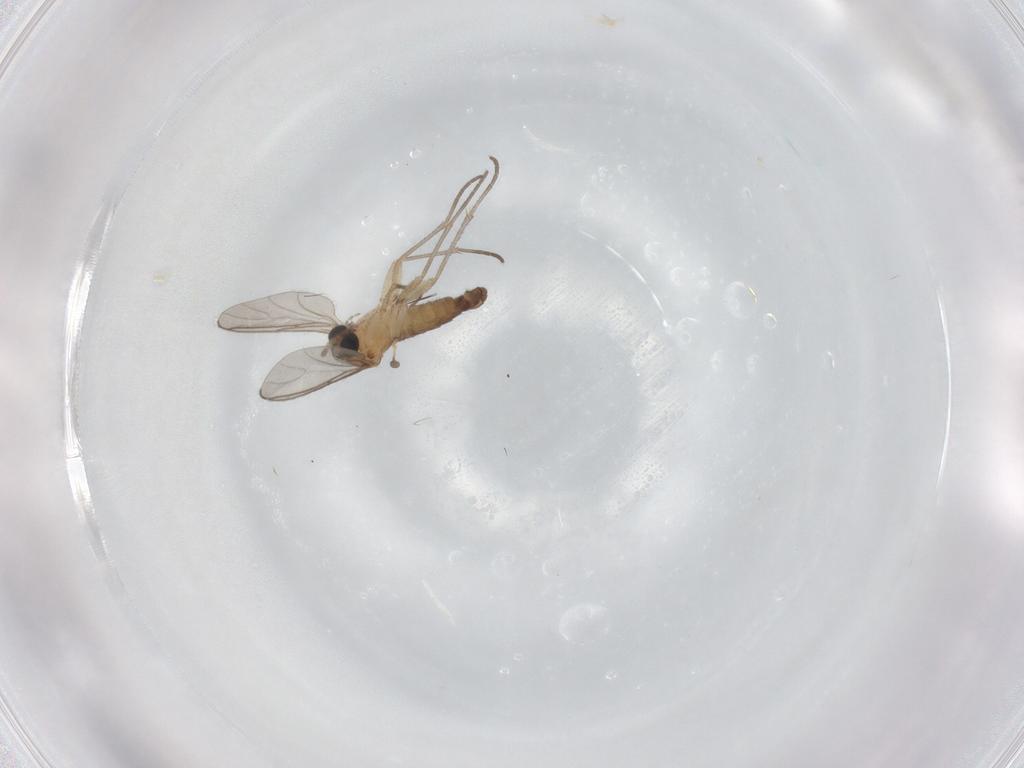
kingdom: Animalia
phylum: Arthropoda
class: Insecta
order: Diptera
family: Sciaridae
